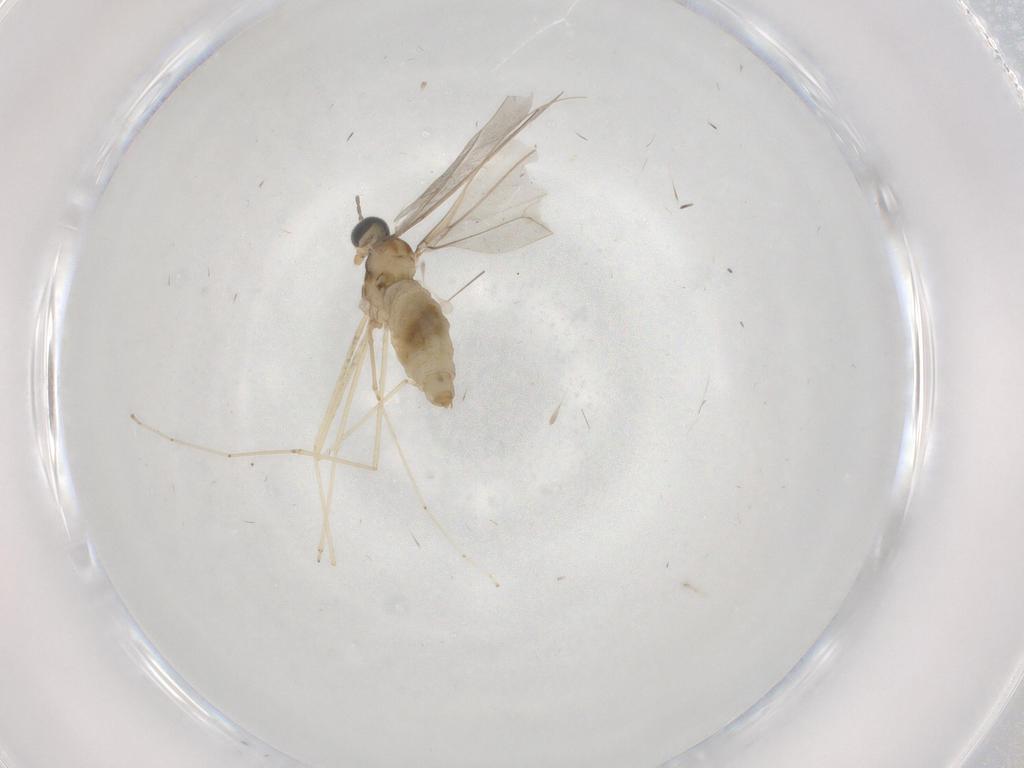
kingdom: Animalia
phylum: Arthropoda
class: Insecta
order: Diptera
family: Cecidomyiidae
